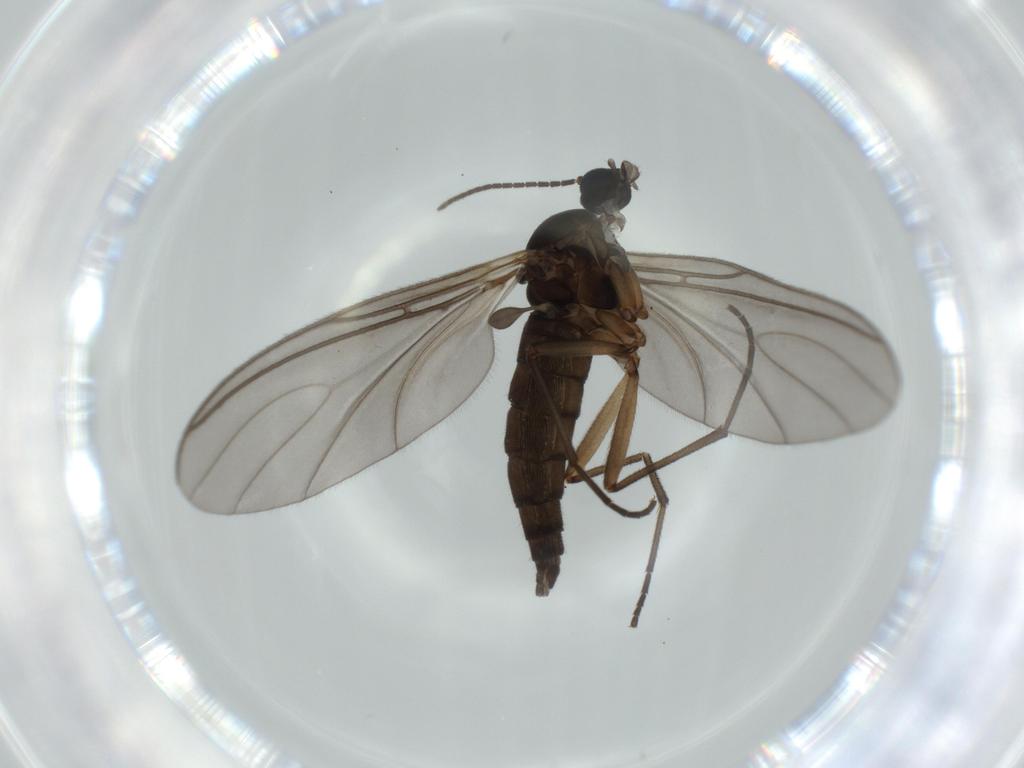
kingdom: Animalia
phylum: Arthropoda
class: Insecta
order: Diptera
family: Sciaridae
